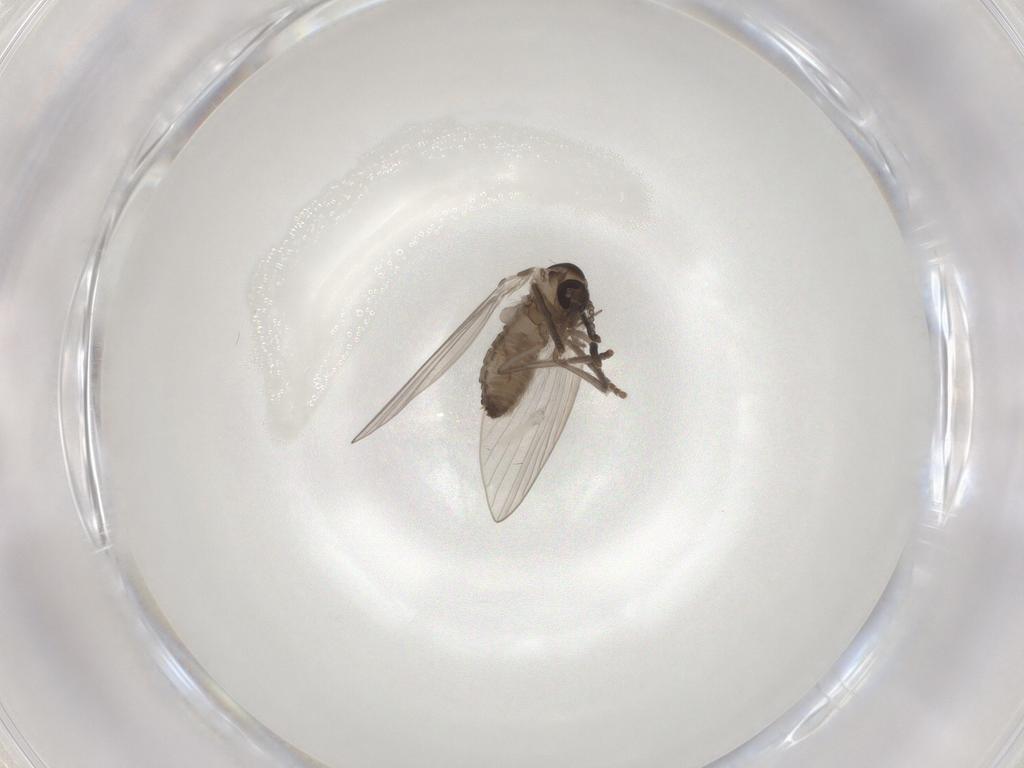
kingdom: Animalia
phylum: Arthropoda
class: Insecta
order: Diptera
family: Psychodidae
